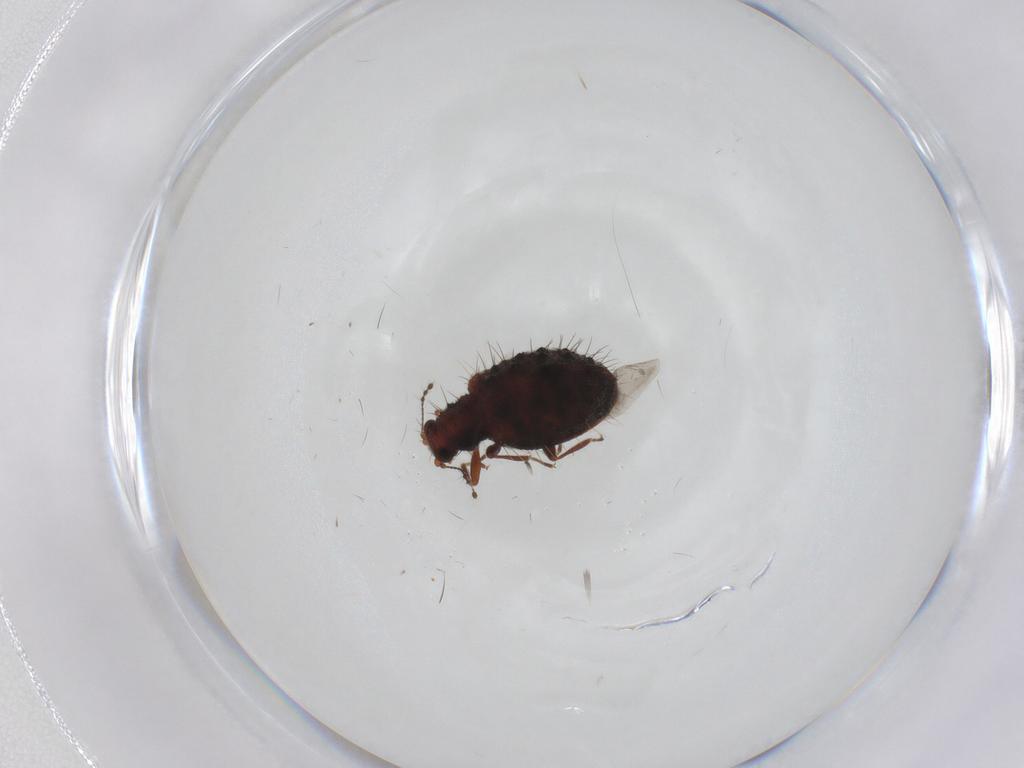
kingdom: Animalia
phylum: Arthropoda
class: Insecta
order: Coleoptera
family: Latridiidae
